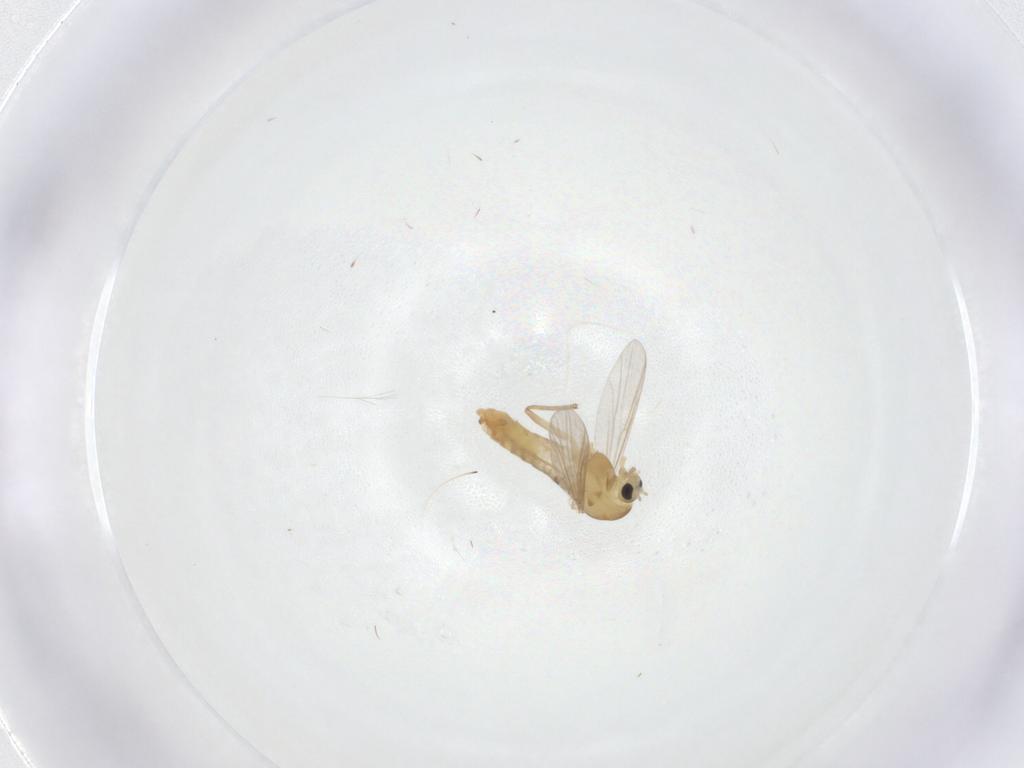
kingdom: Animalia
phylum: Arthropoda
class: Insecta
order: Diptera
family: Chironomidae
